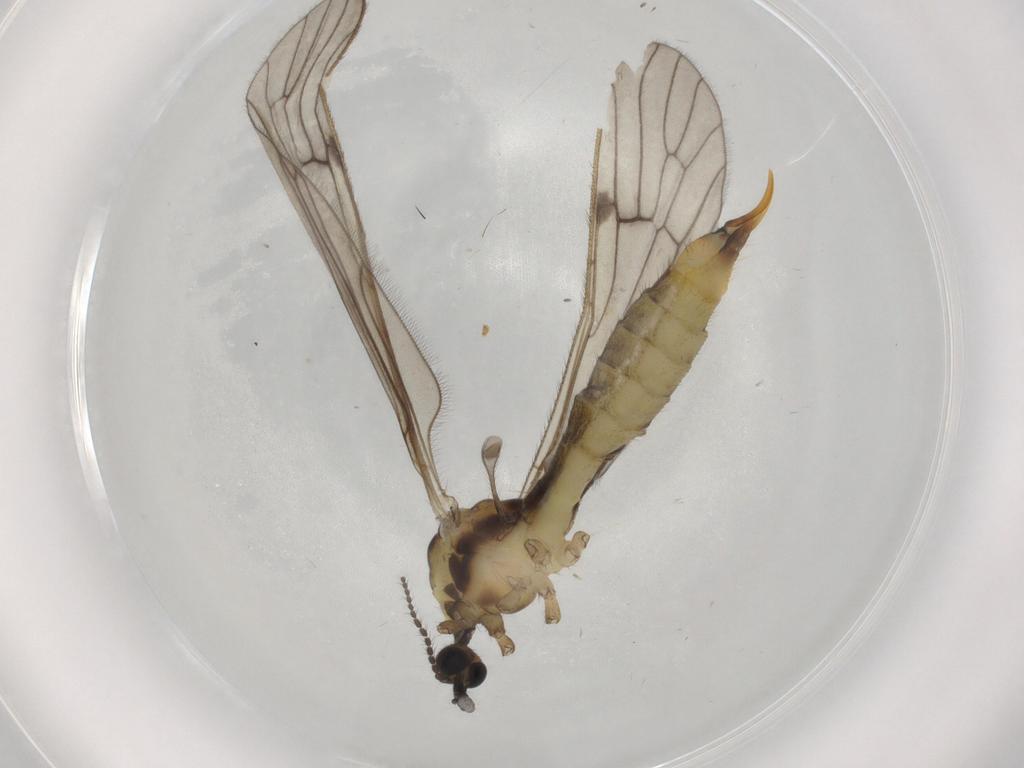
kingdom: Animalia
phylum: Arthropoda
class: Insecta
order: Diptera
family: Limoniidae
